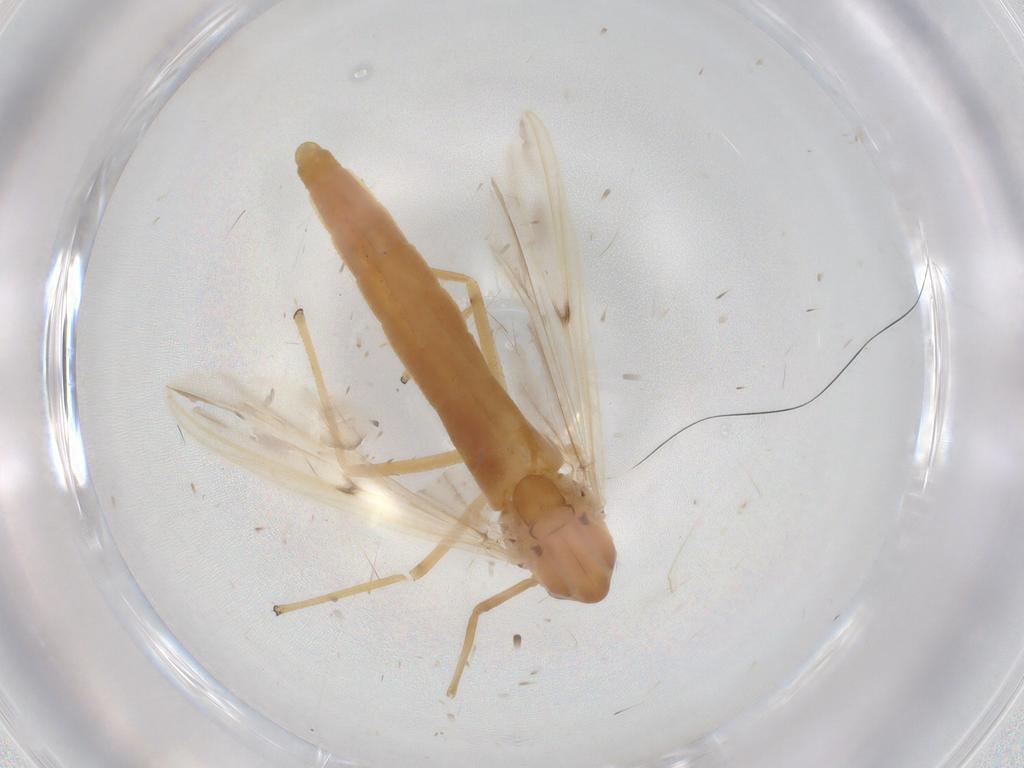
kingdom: Animalia
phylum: Arthropoda
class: Insecta
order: Diptera
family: Chironomidae
